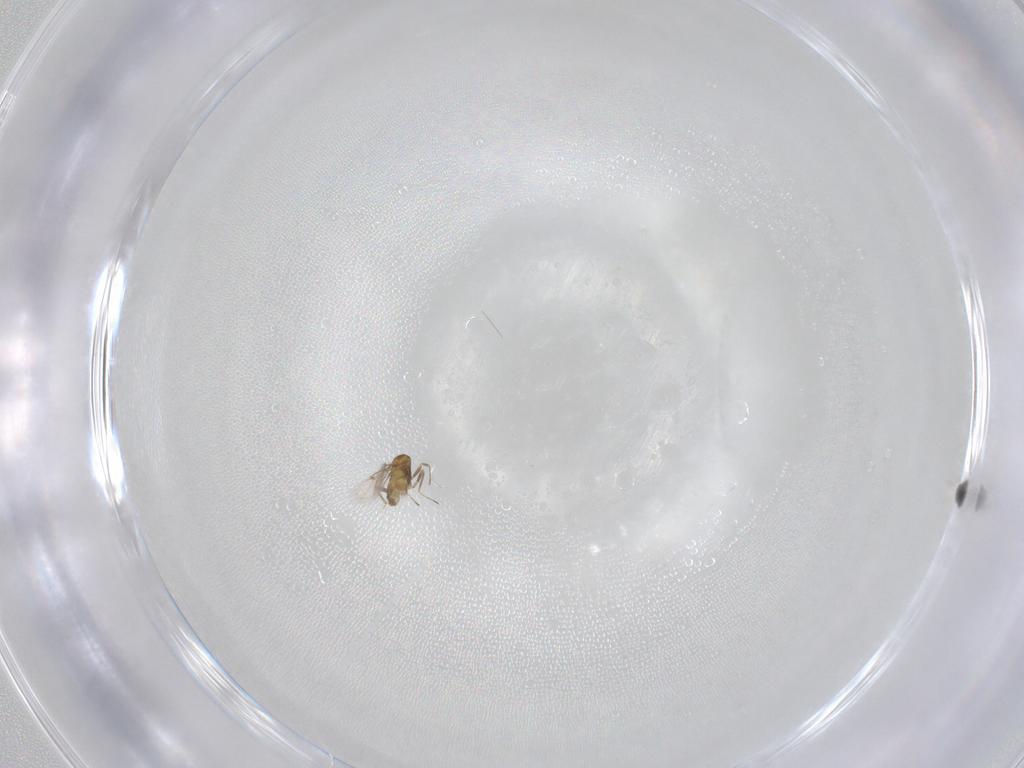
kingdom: Animalia
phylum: Arthropoda
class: Insecta
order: Hymenoptera
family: Trichogrammatidae
